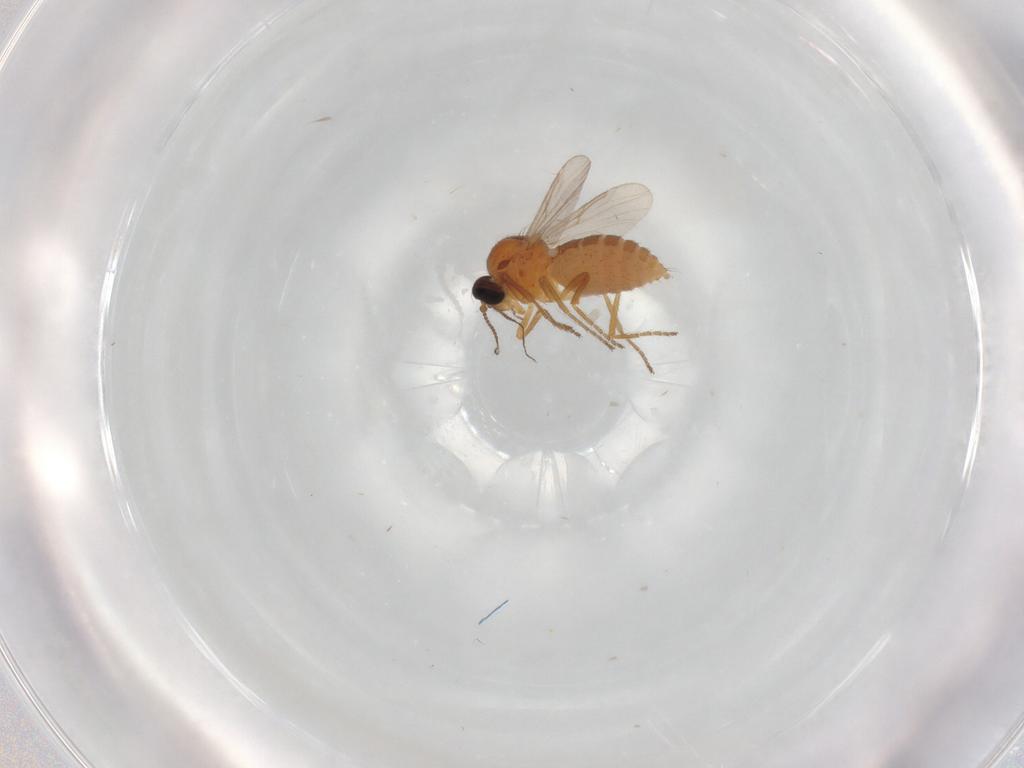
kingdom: Animalia
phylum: Arthropoda
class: Insecta
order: Diptera
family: Ceratopogonidae
